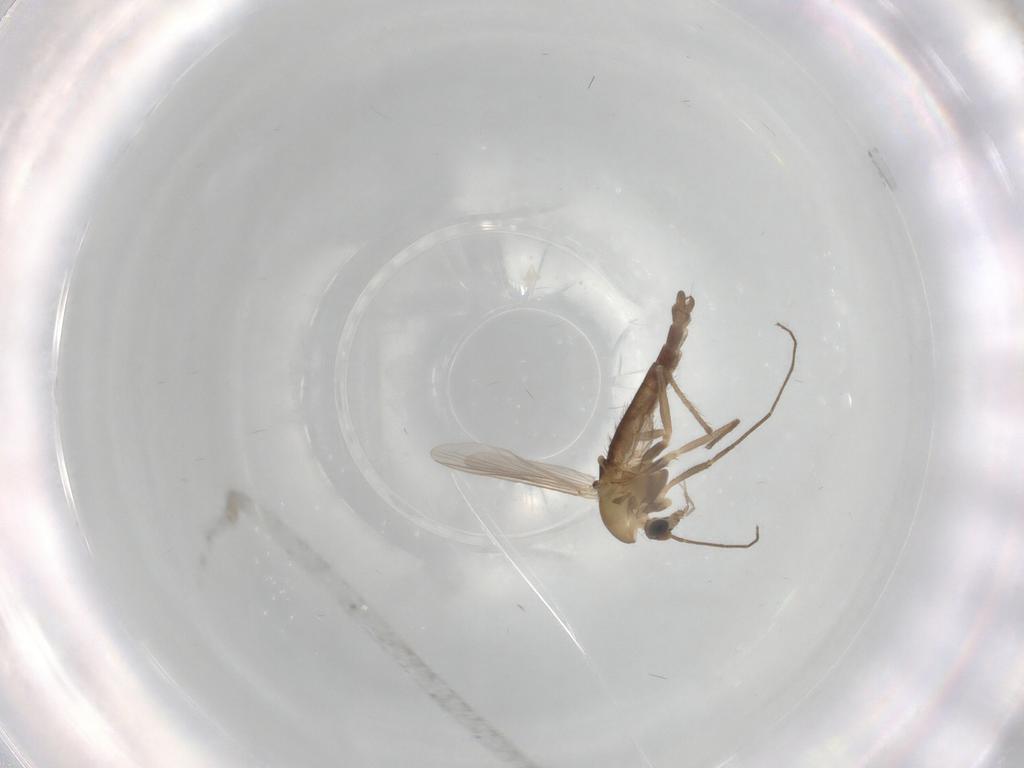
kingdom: Animalia
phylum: Arthropoda
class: Insecta
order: Diptera
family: Chironomidae
